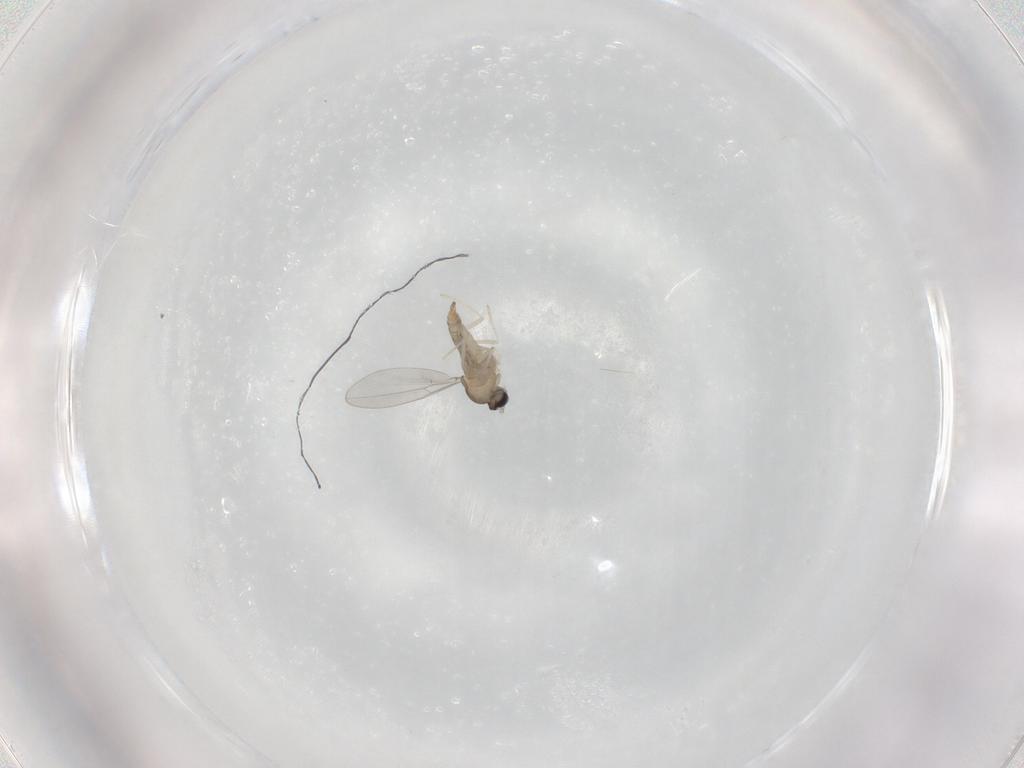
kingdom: Animalia
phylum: Arthropoda
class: Insecta
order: Diptera
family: Cecidomyiidae
